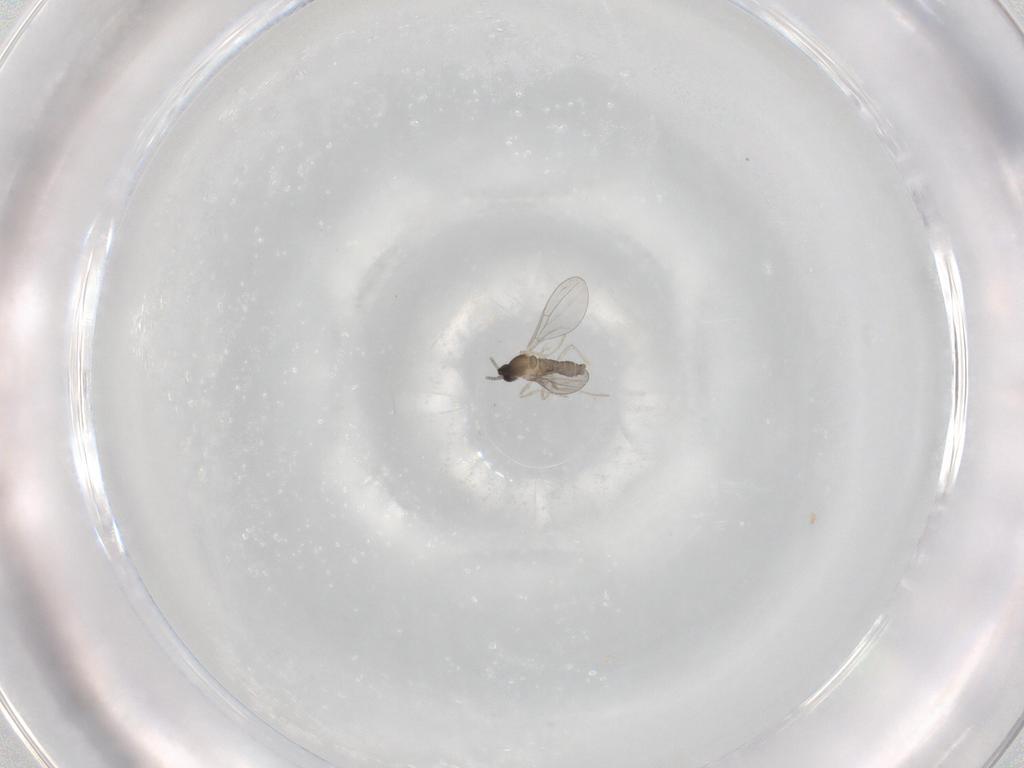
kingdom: Animalia
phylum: Arthropoda
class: Insecta
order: Diptera
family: Cecidomyiidae
